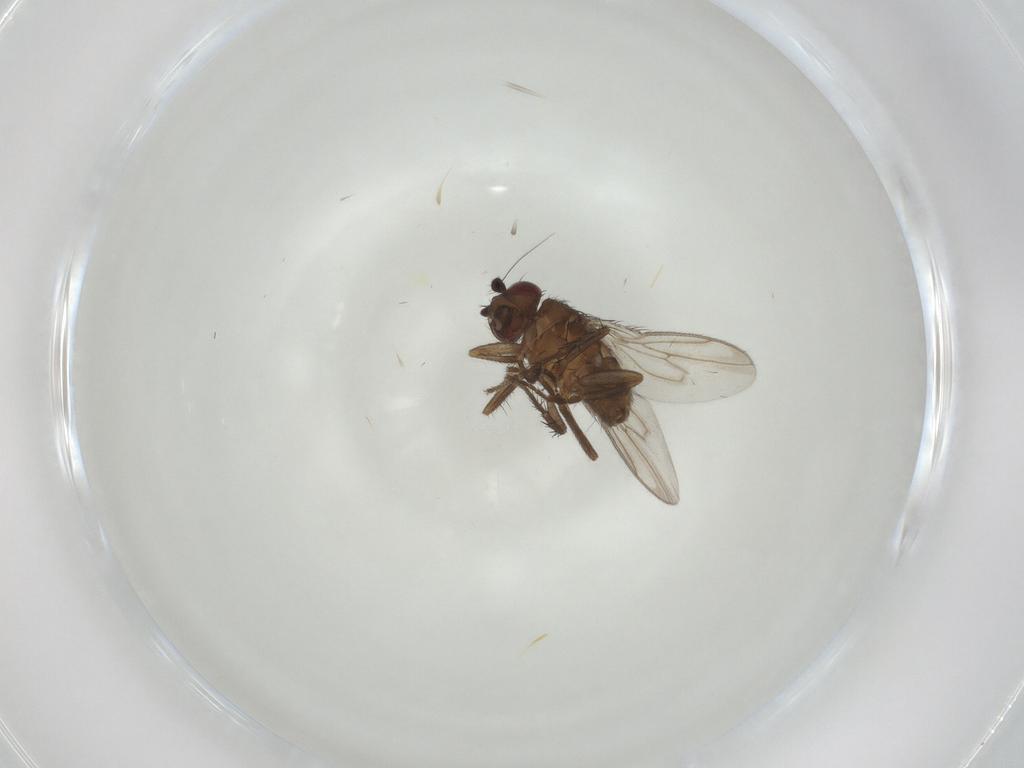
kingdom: Animalia
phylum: Arthropoda
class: Insecta
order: Diptera
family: Sphaeroceridae
